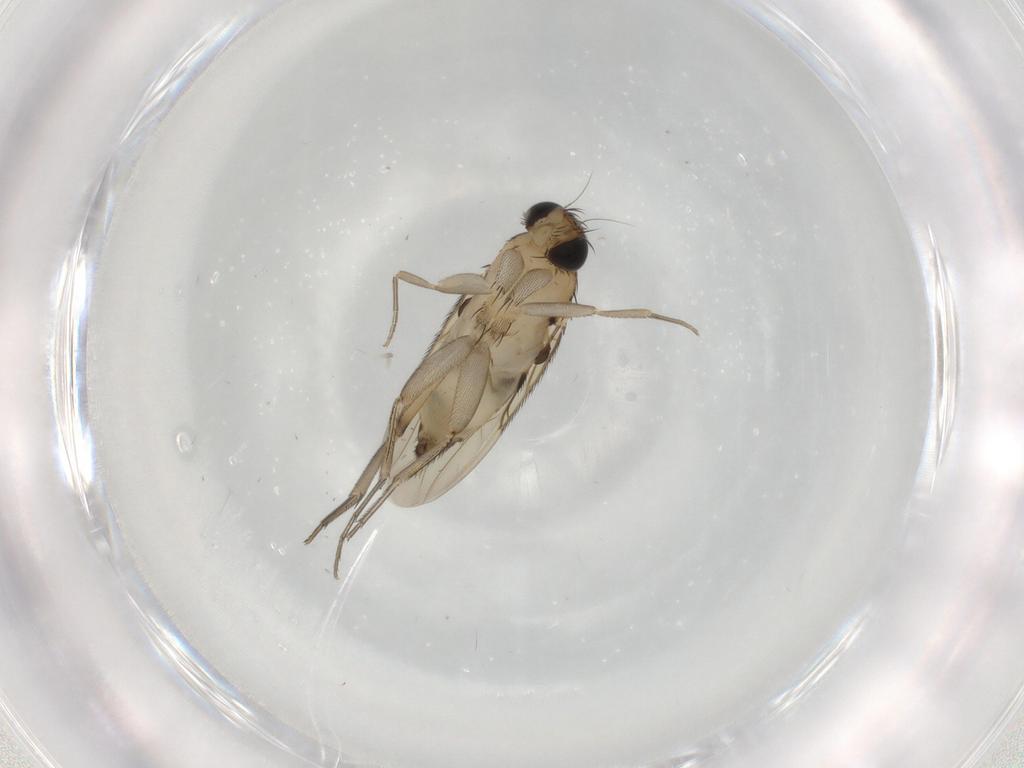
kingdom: Animalia
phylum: Arthropoda
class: Insecta
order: Diptera
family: Phoridae
